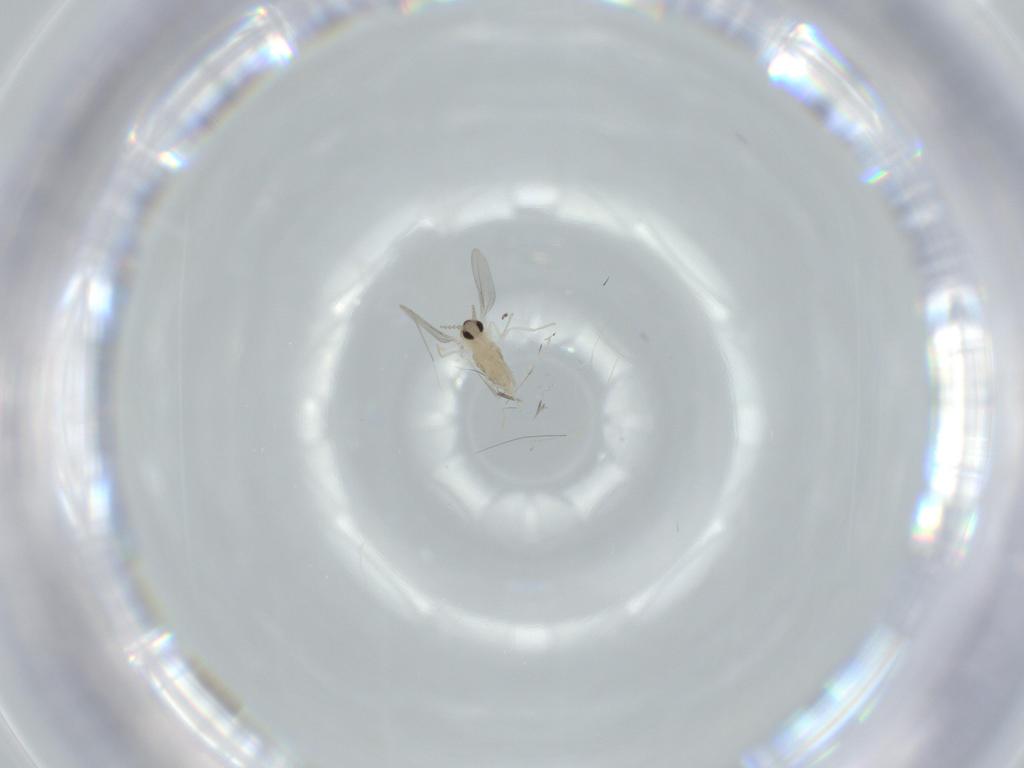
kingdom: Animalia
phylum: Arthropoda
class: Insecta
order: Diptera
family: Cecidomyiidae
